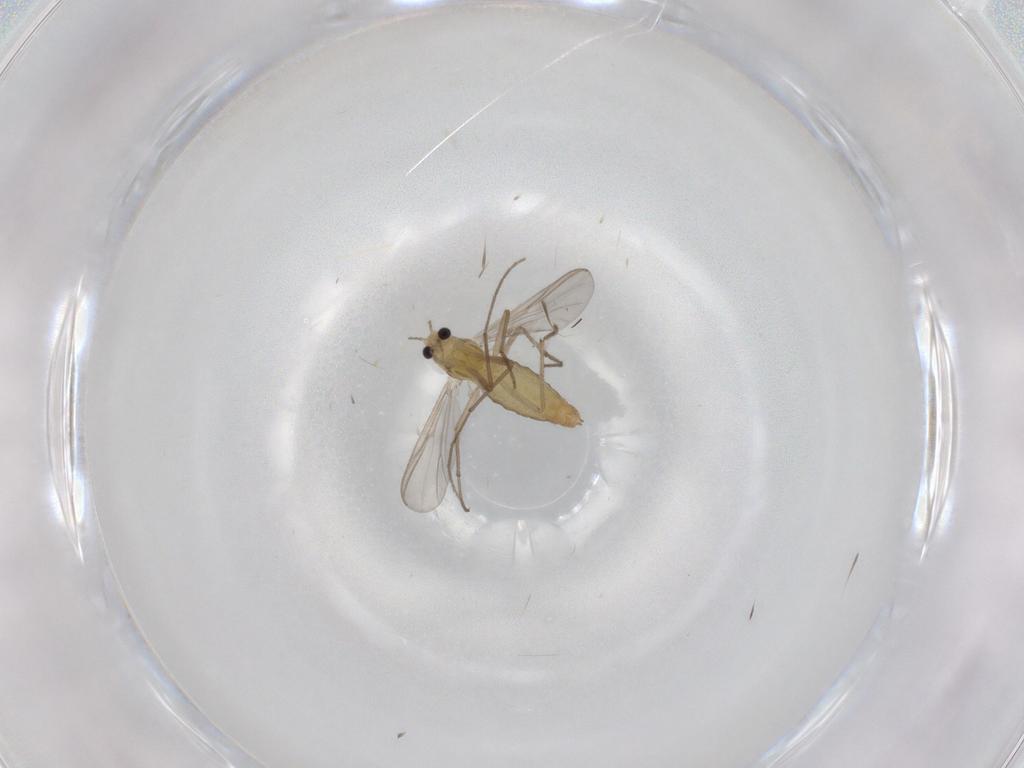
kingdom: Animalia
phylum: Arthropoda
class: Insecta
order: Diptera
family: Chironomidae
